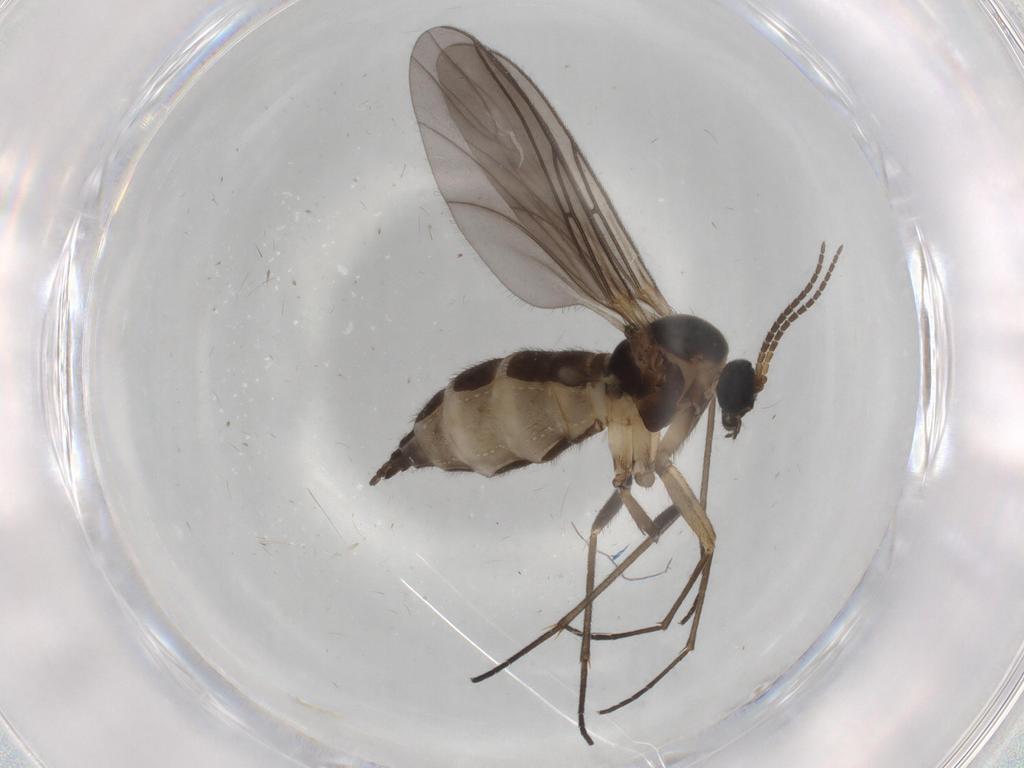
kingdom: Animalia
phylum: Arthropoda
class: Insecta
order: Diptera
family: Sciaridae
